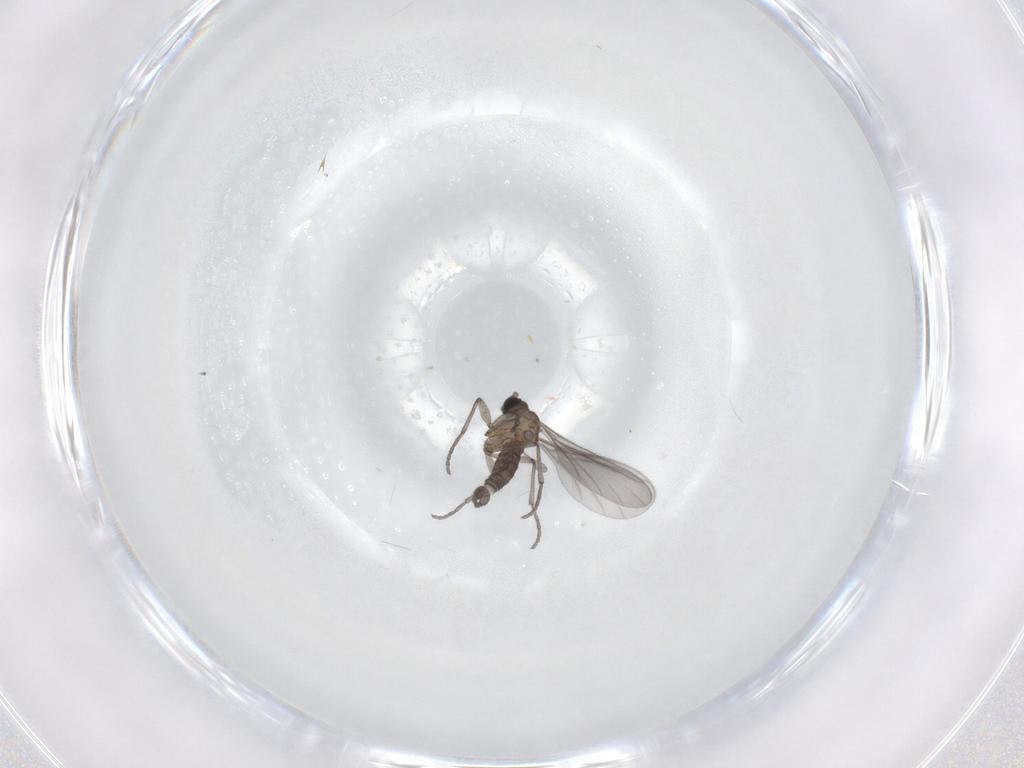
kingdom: Animalia
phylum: Arthropoda
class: Insecta
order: Diptera
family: Sciaridae
